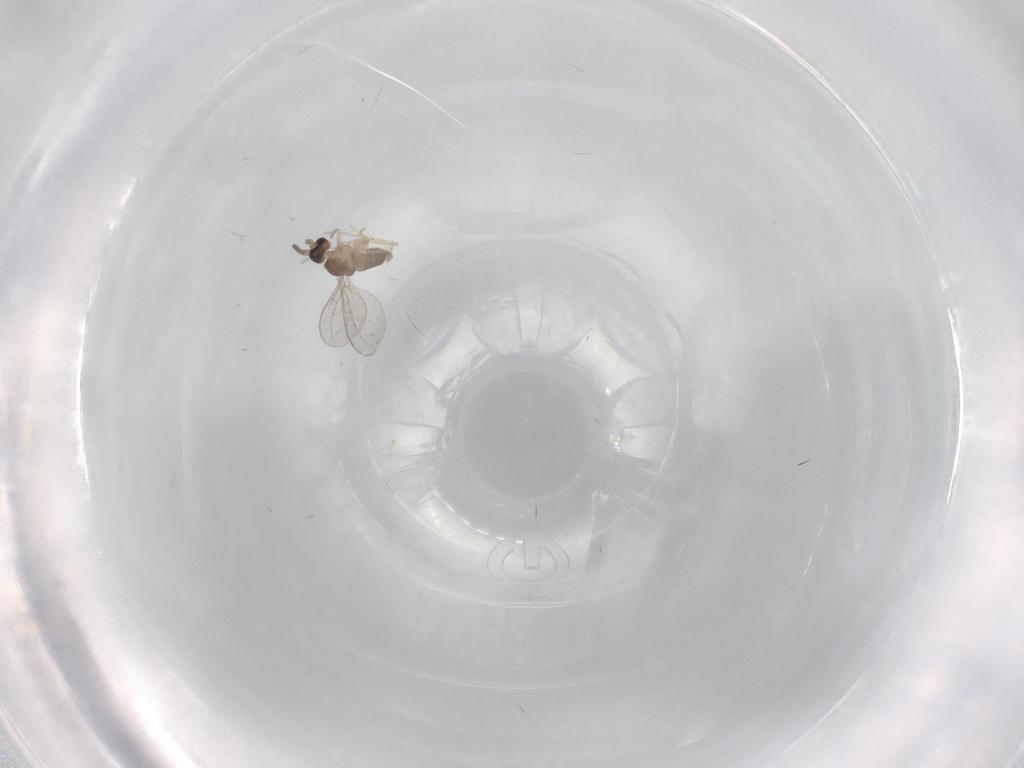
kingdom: Animalia
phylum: Arthropoda
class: Insecta
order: Diptera
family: Cecidomyiidae
